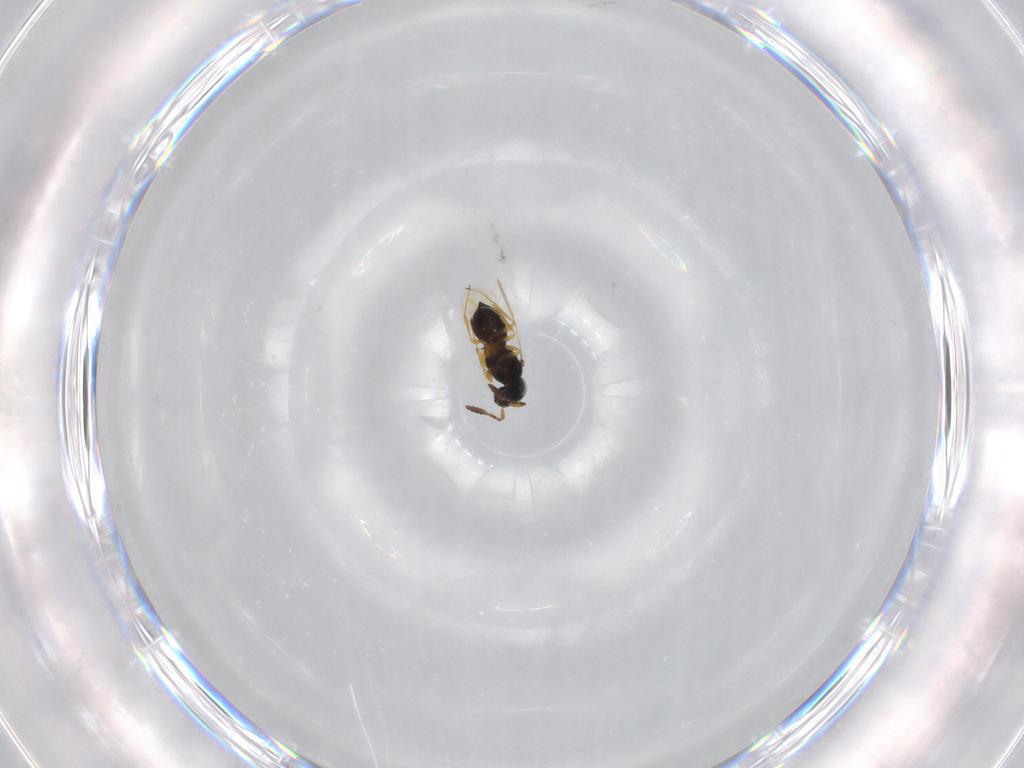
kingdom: Animalia
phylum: Arthropoda
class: Insecta
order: Hymenoptera
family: Scelionidae
